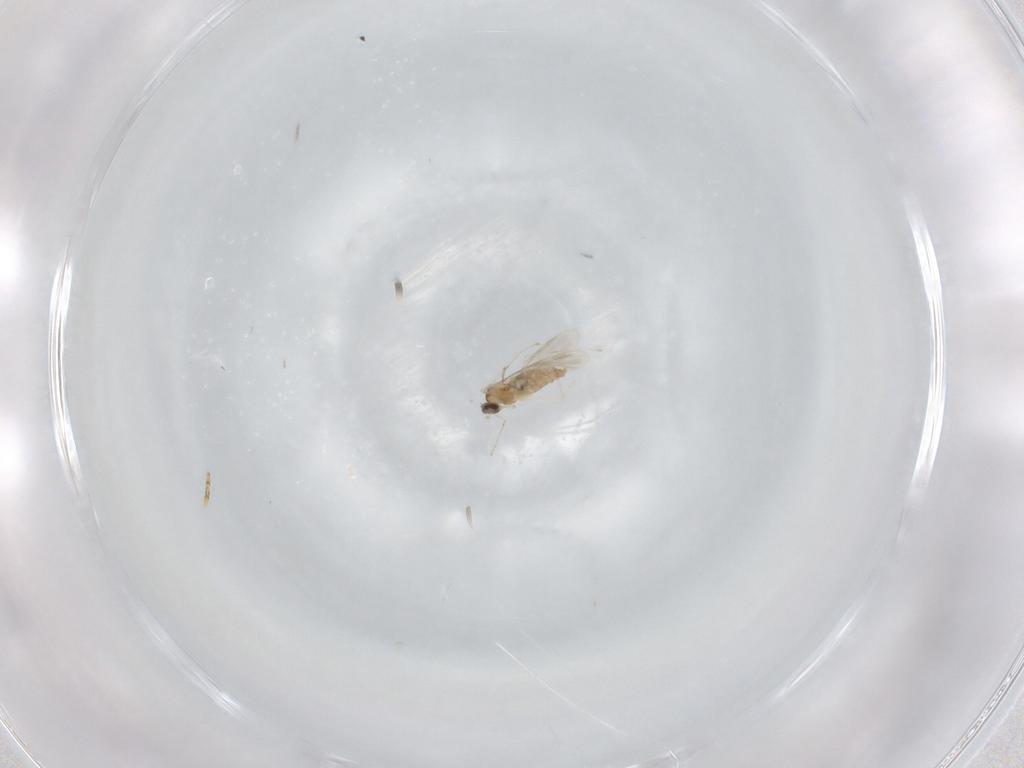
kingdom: Animalia
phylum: Arthropoda
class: Insecta
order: Diptera
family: Cecidomyiidae
